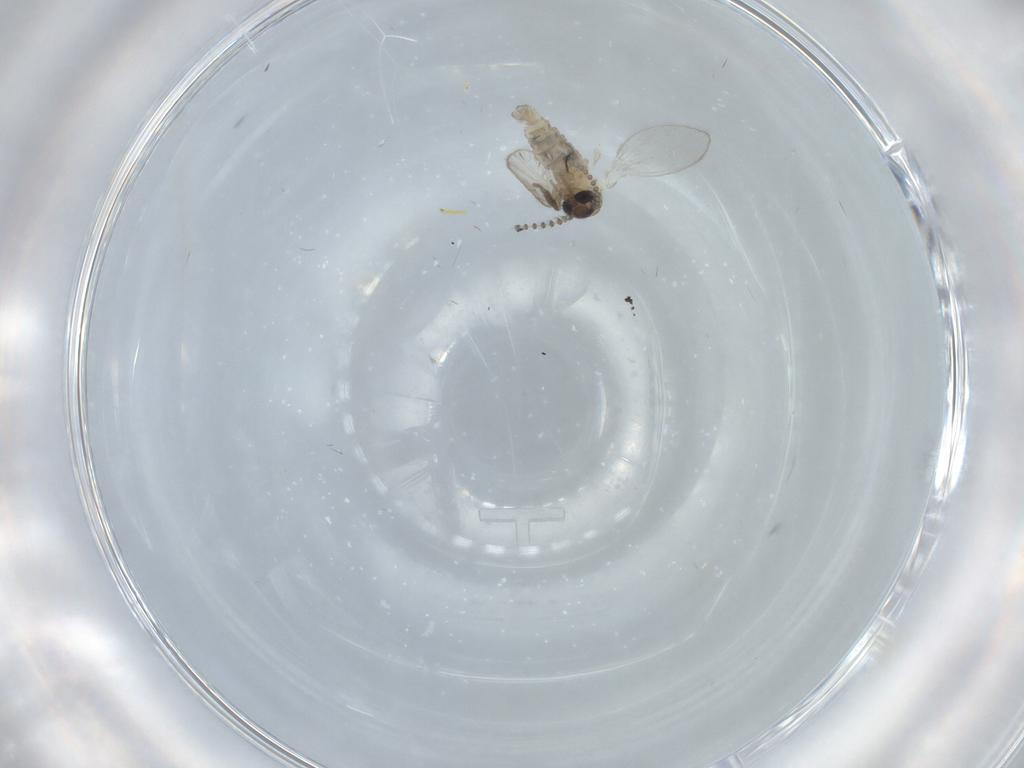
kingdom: Animalia
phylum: Arthropoda
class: Insecta
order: Diptera
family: Psychodidae
